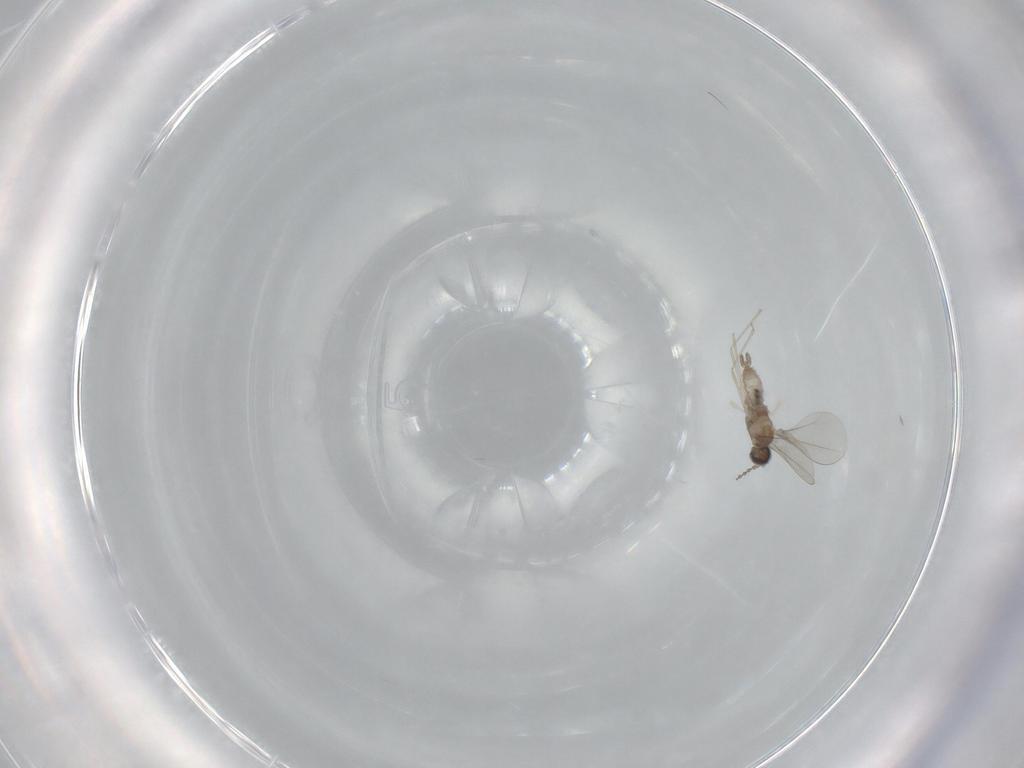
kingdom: Animalia
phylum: Arthropoda
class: Insecta
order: Diptera
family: Cecidomyiidae
